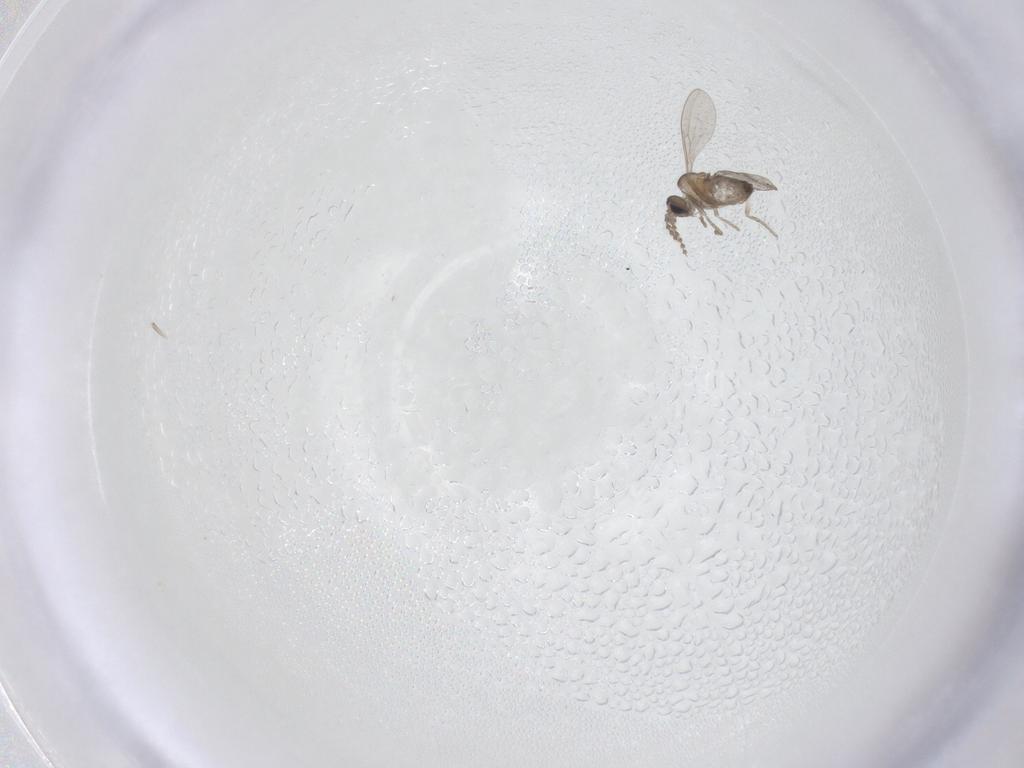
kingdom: Animalia
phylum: Arthropoda
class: Insecta
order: Diptera
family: Cecidomyiidae
